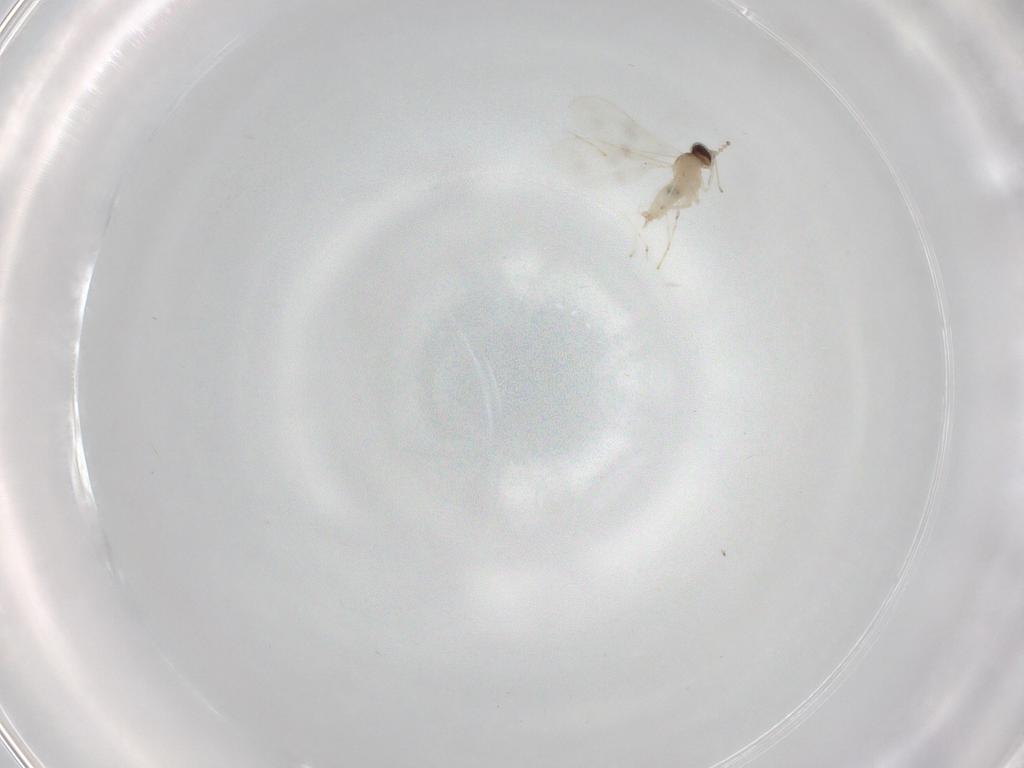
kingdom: Animalia
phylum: Arthropoda
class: Insecta
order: Diptera
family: Cecidomyiidae
